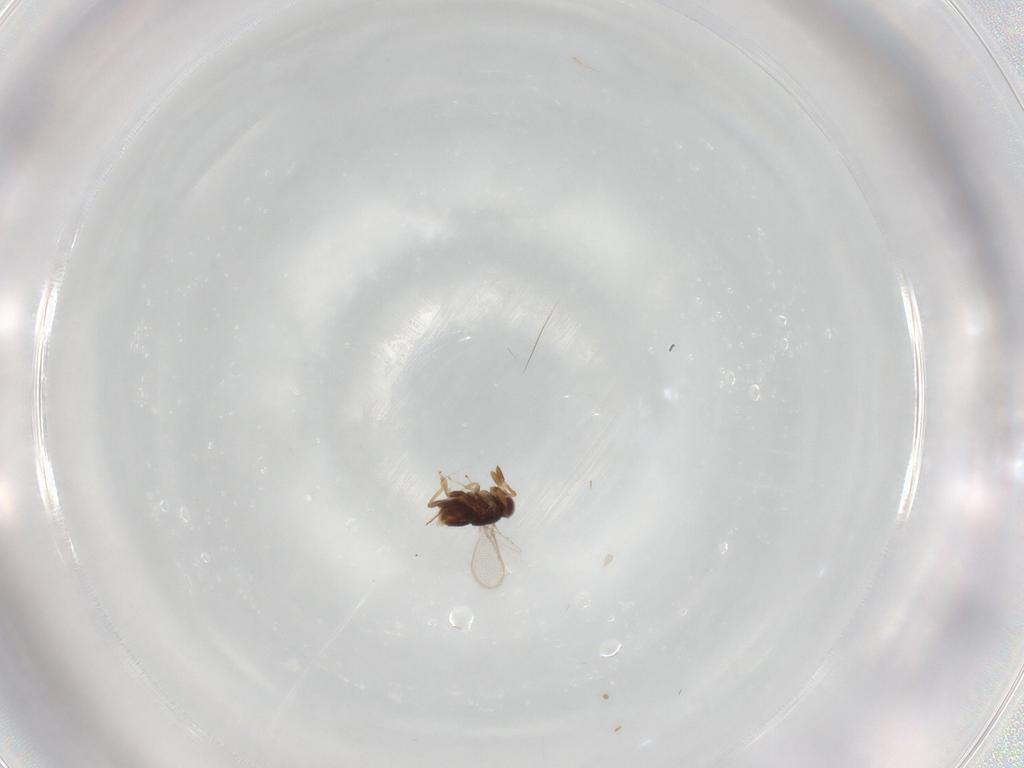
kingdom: Animalia
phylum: Arthropoda
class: Insecta
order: Hymenoptera
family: Aphelinidae
